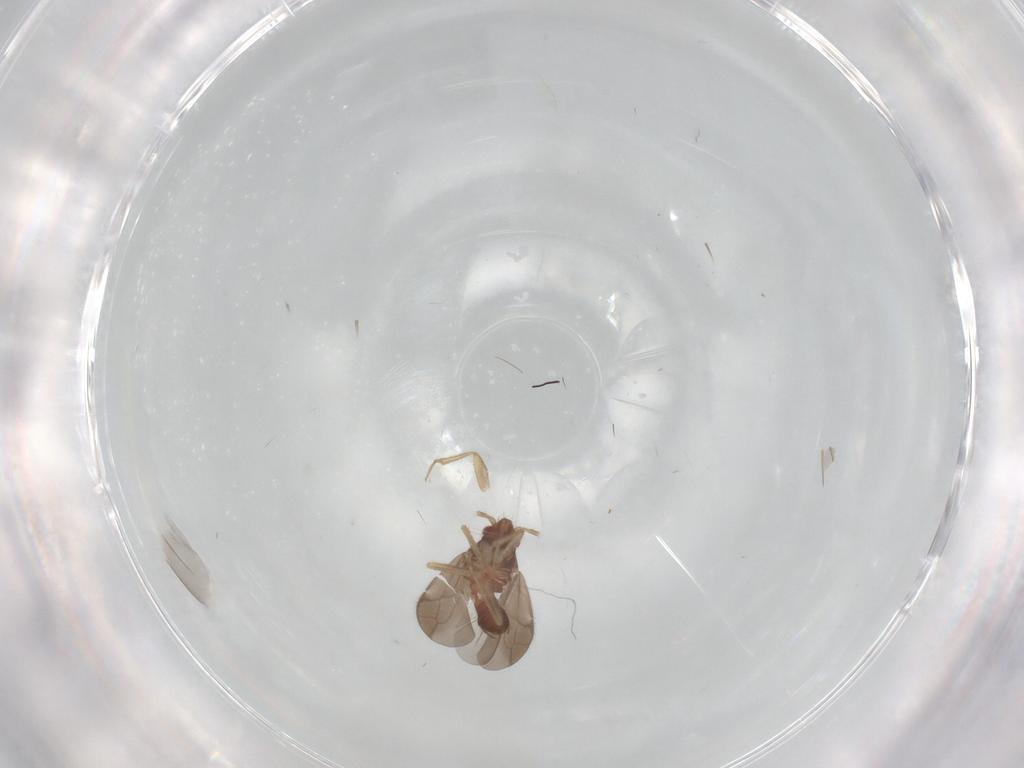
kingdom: Animalia
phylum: Arthropoda
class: Insecta
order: Hemiptera
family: Ceratocombidae
